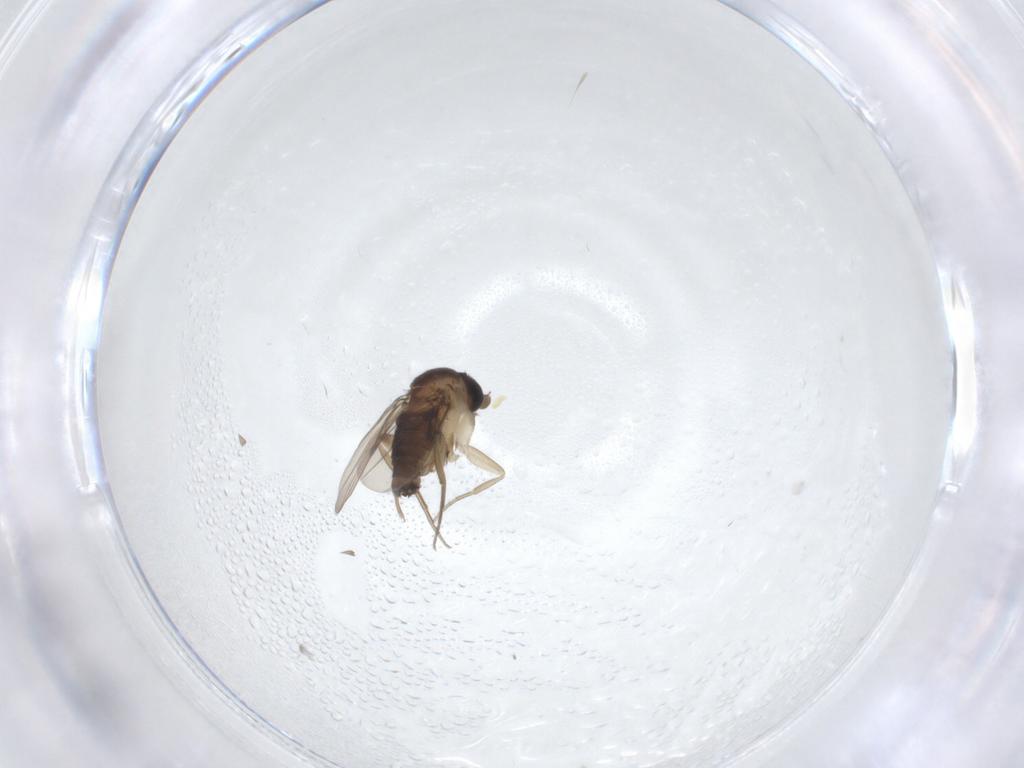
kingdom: Animalia
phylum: Arthropoda
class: Insecta
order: Diptera
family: Phoridae
